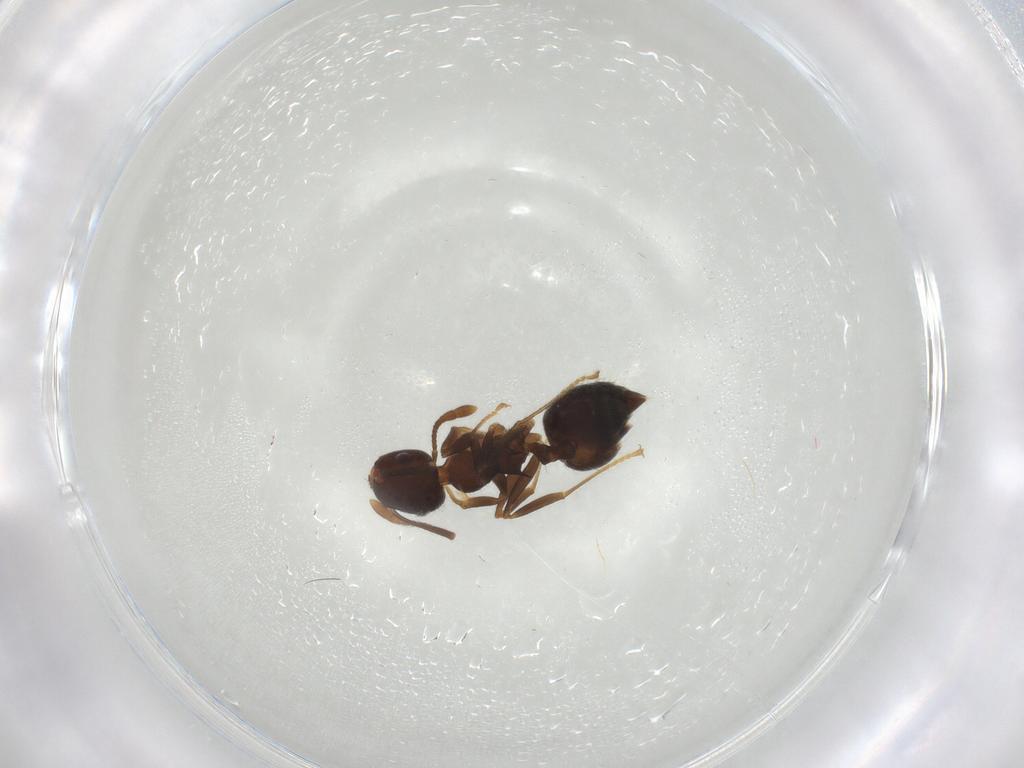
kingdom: Animalia
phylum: Arthropoda
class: Insecta
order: Hymenoptera
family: Formicidae
